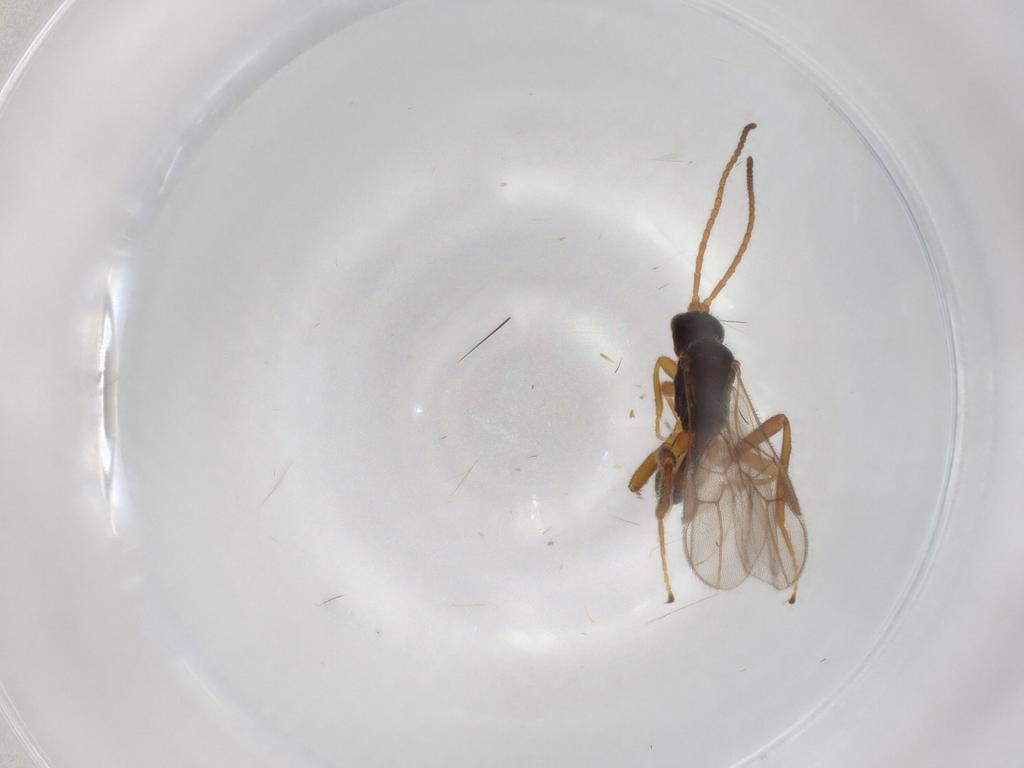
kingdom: Animalia
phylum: Arthropoda
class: Insecta
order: Hymenoptera
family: Braconidae
